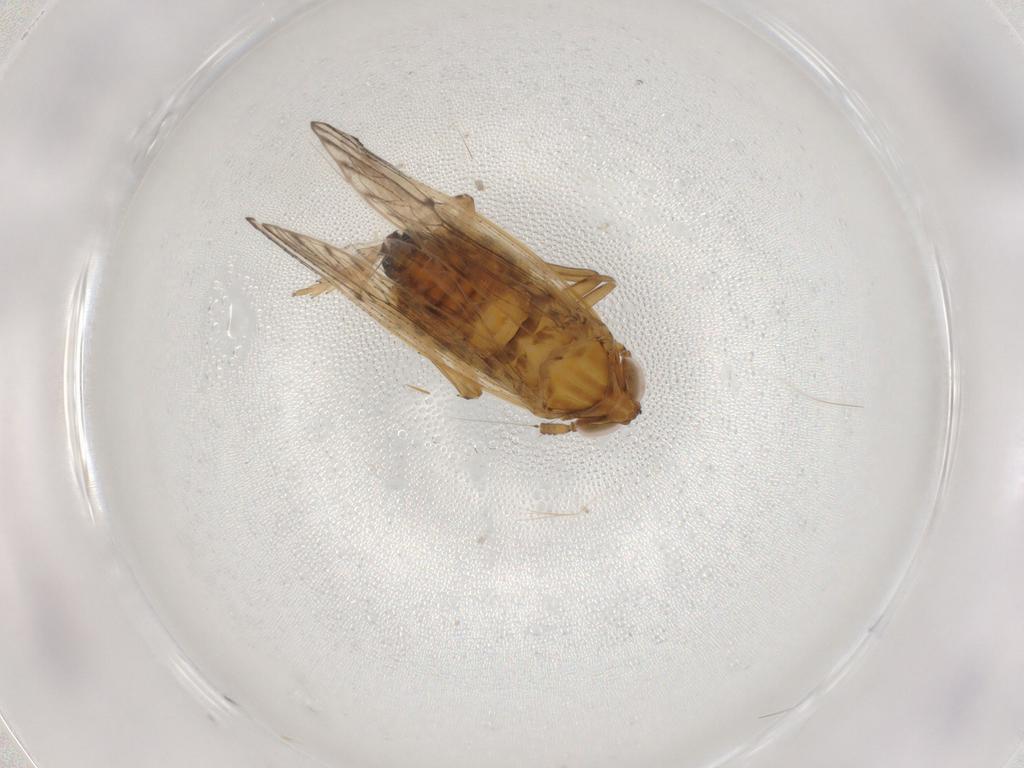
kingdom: Animalia
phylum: Arthropoda
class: Insecta
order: Hemiptera
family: Delphacidae
